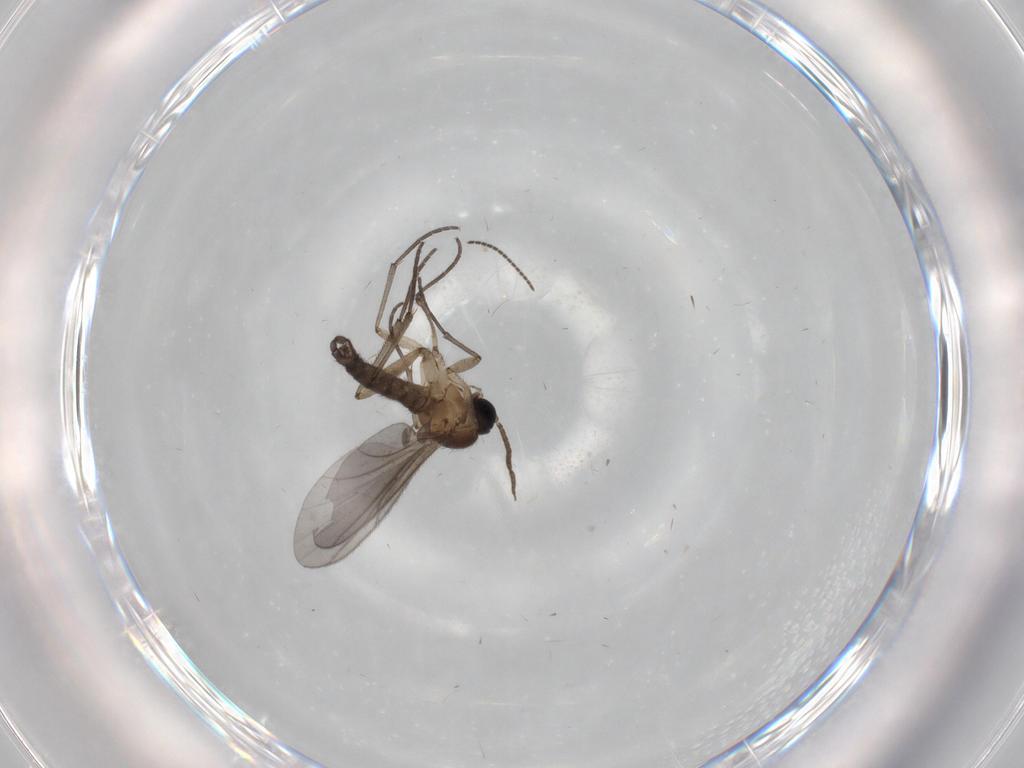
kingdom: Animalia
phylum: Arthropoda
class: Insecta
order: Diptera
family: Sciaridae
